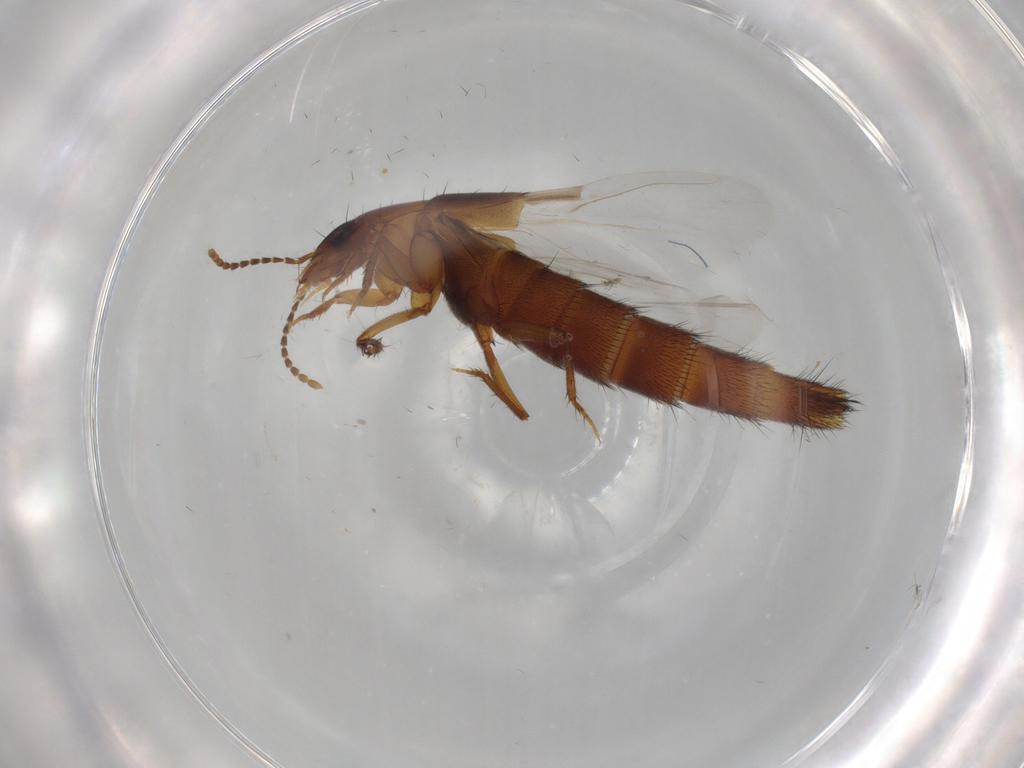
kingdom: Animalia
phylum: Arthropoda
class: Insecta
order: Coleoptera
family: Staphylinidae
